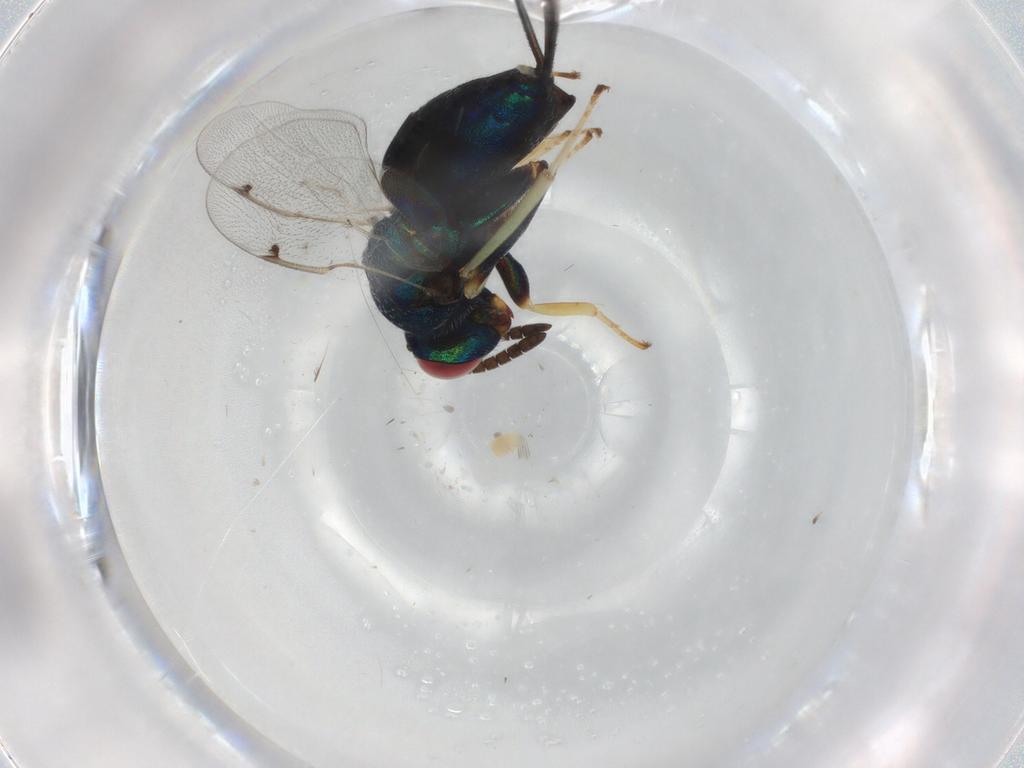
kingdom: Animalia
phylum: Arthropoda
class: Insecta
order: Hymenoptera
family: Torymidae
